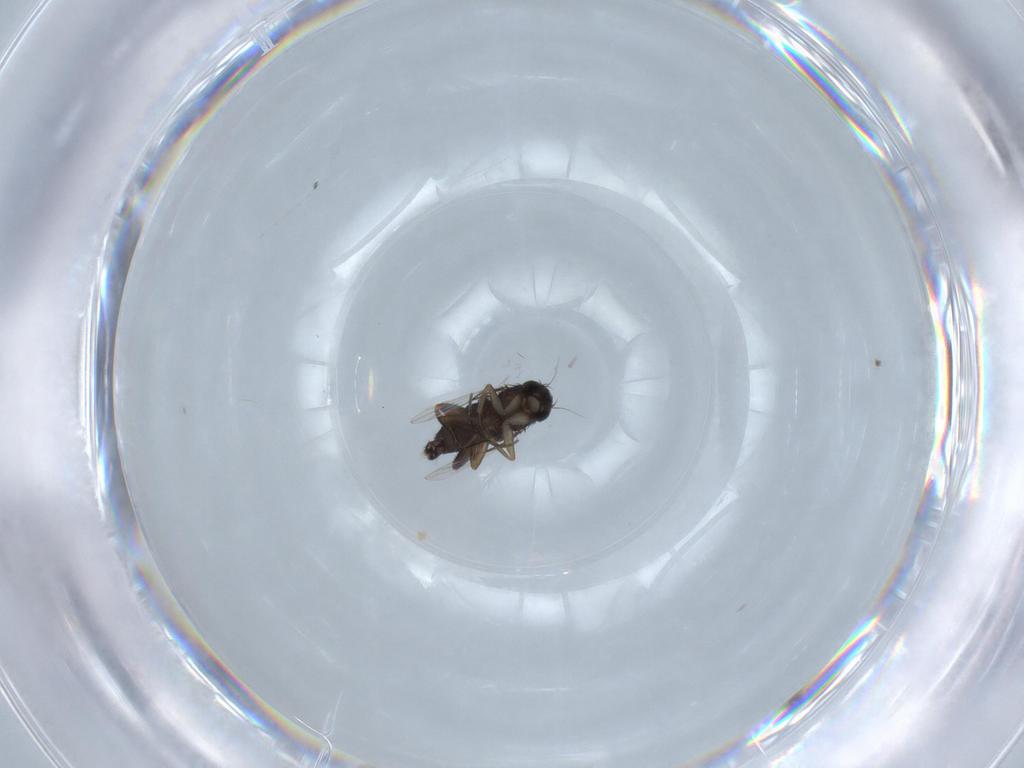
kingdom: Animalia
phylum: Arthropoda
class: Insecta
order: Diptera
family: Phoridae
